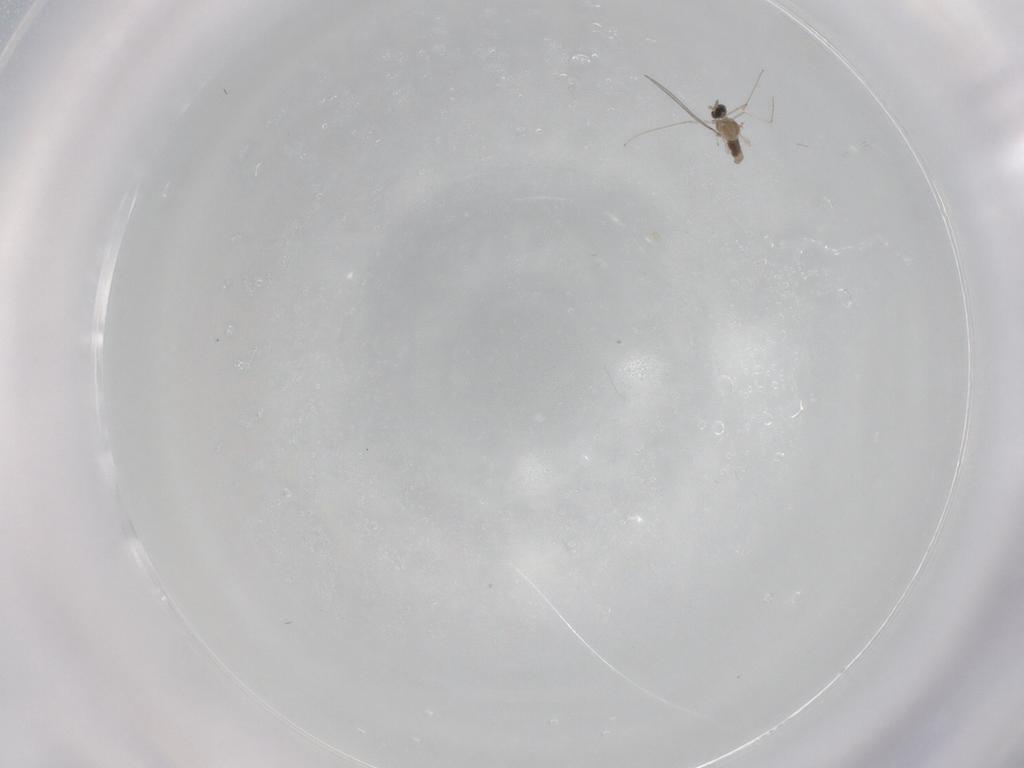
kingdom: Animalia
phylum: Arthropoda
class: Insecta
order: Diptera
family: Cecidomyiidae
